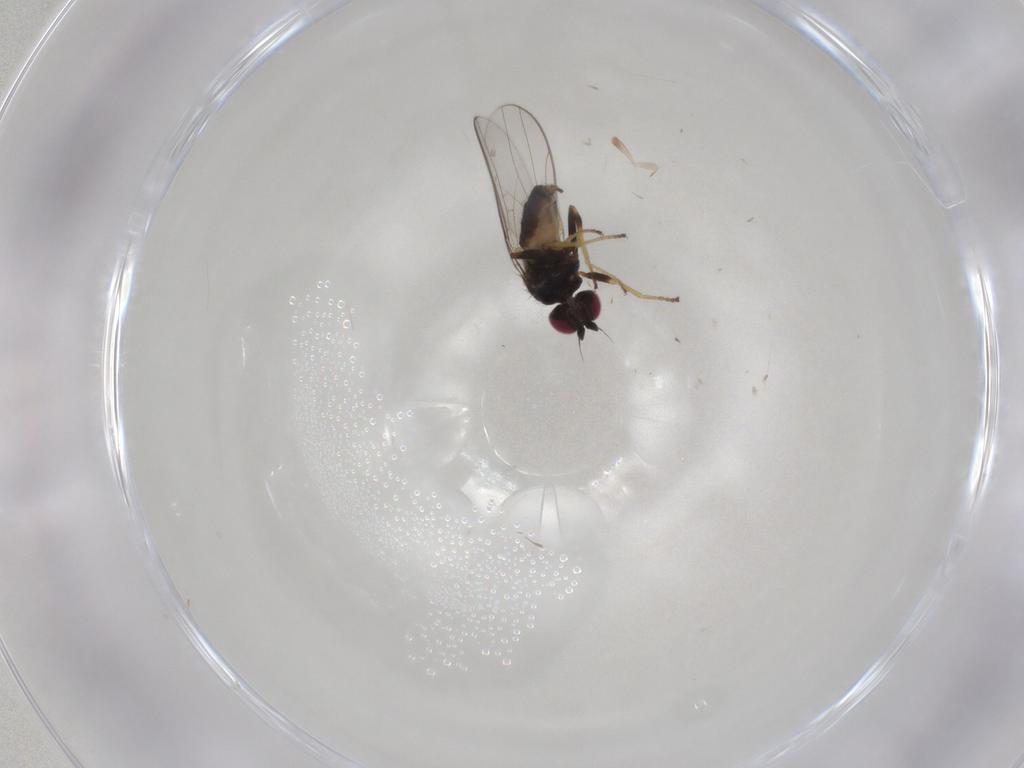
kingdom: Animalia
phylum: Arthropoda
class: Insecta
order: Diptera
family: Chloropidae
